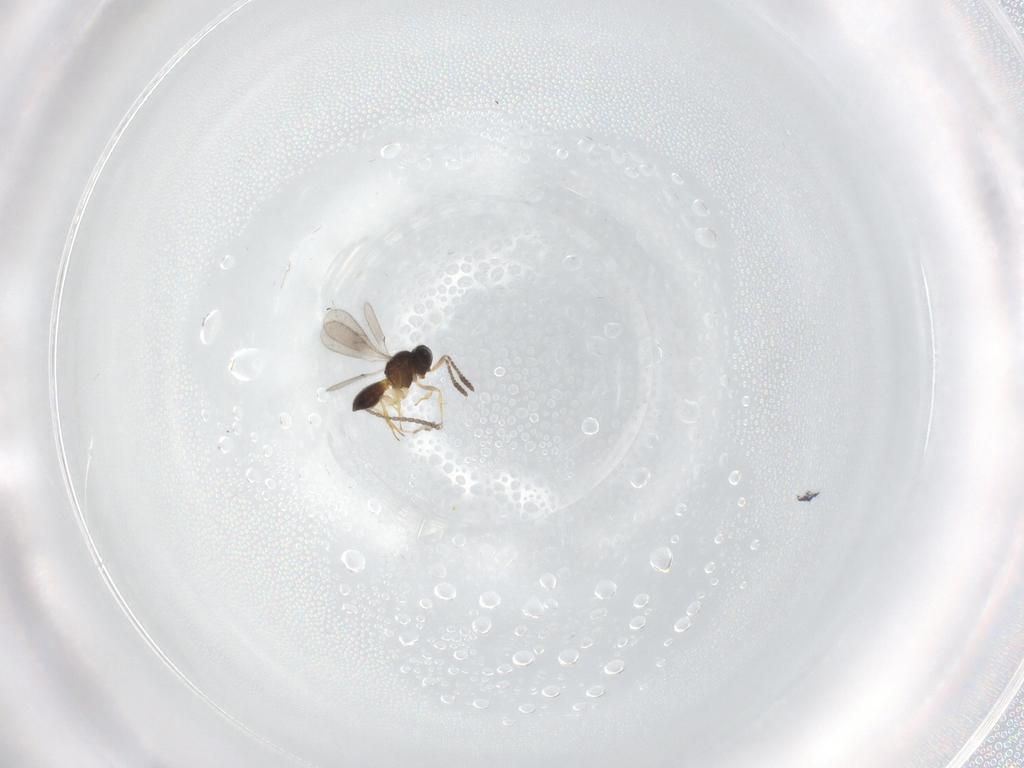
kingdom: Animalia
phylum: Arthropoda
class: Insecta
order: Hymenoptera
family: Scelionidae
